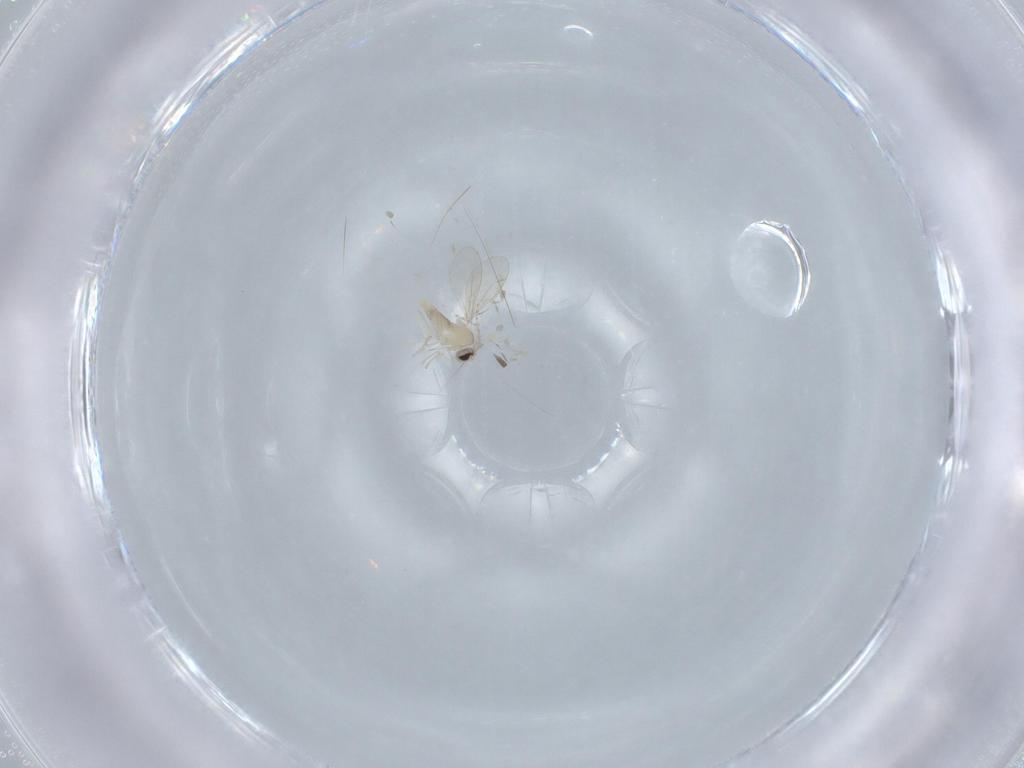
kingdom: Animalia
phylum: Arthropoda
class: Insecta
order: Diptera
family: Cecidomyiidae
